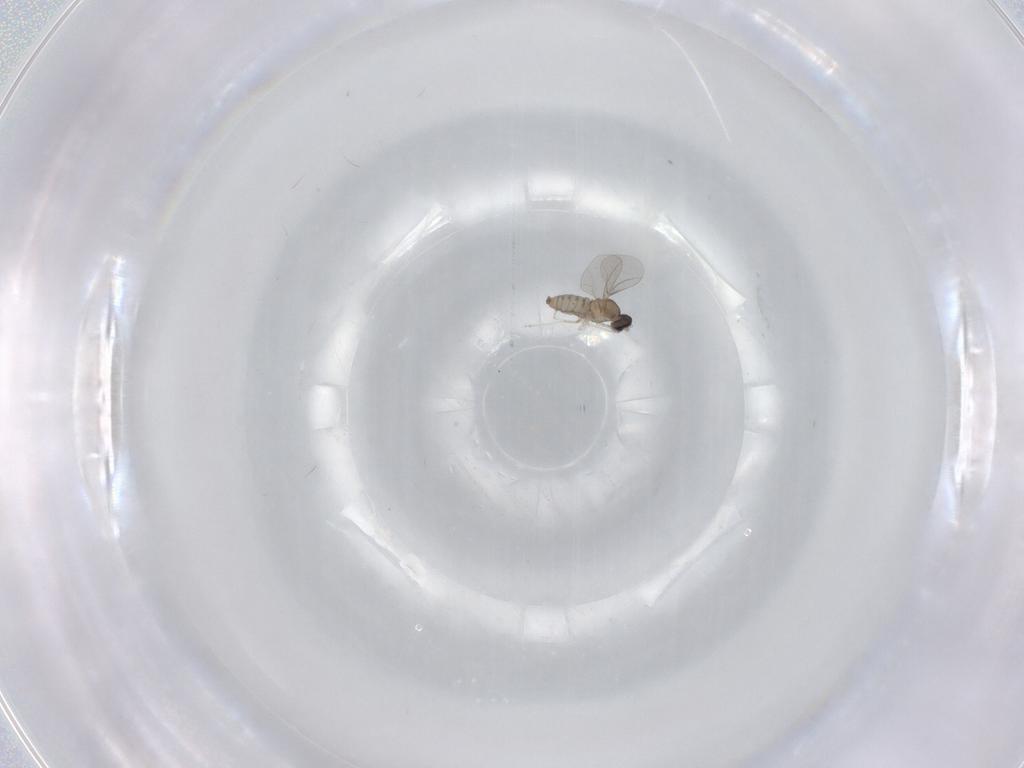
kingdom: Animalia
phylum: Arthropoda
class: Insecta
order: Diptera
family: Cecidomyiidae
